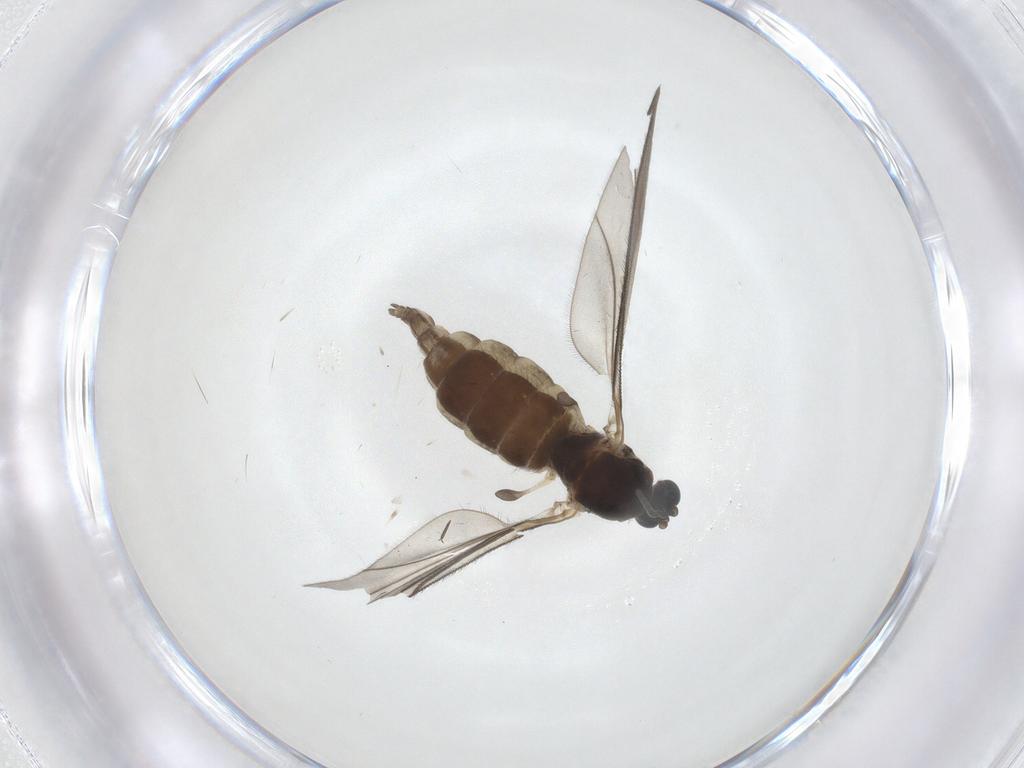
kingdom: Animalia
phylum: Arthropoda
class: Insecta
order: Diptera
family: Sciaridae
